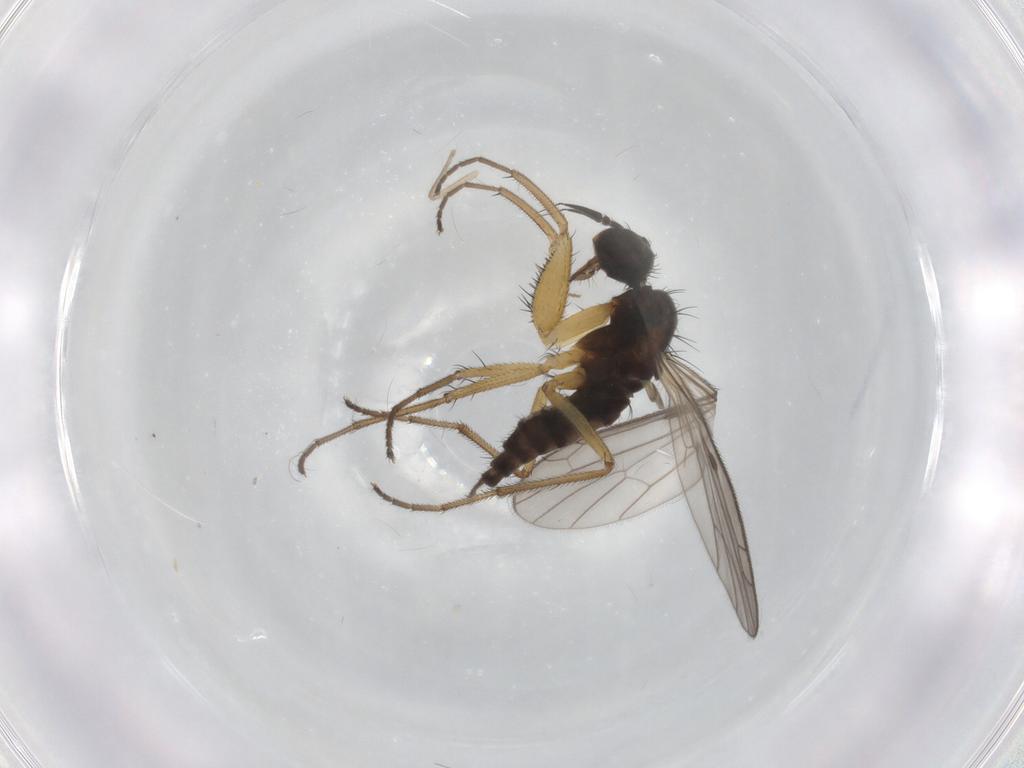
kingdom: Animalia
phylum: Arthropoda
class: Insecta
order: Diptera
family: Chironomidae
